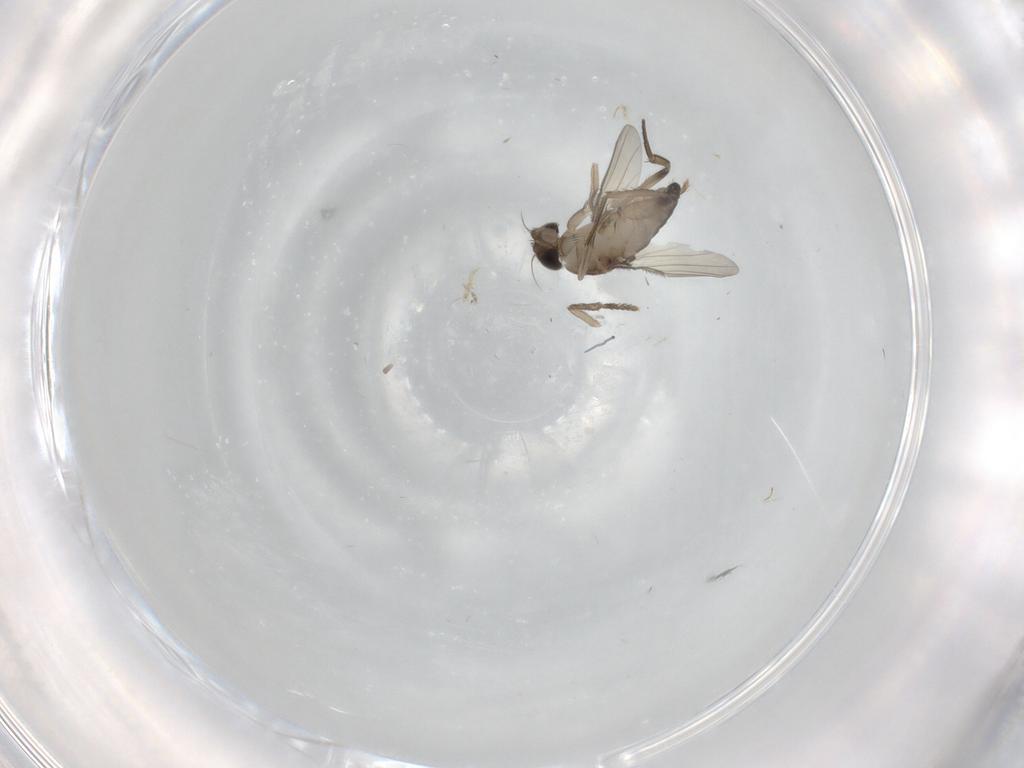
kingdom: Animalia
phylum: Arthropoda
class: Insecta
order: Diptera
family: Phoridae
